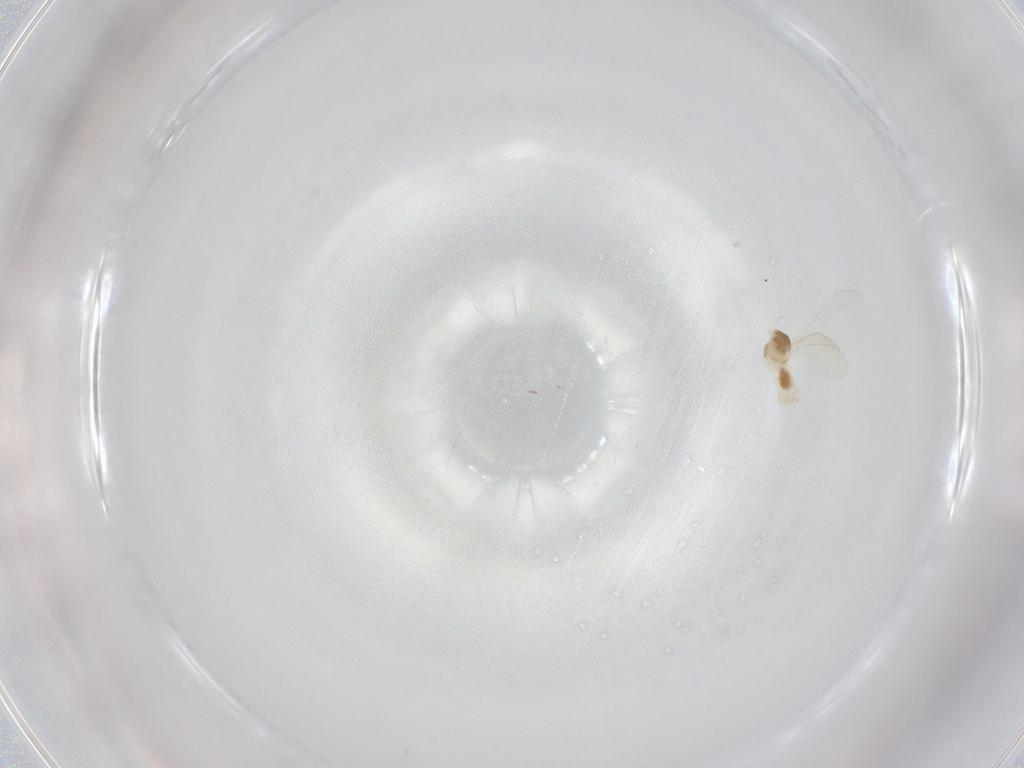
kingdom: Animalia
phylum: Arthropoda
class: Insecta
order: Diptera
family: Cecidomyiidae
